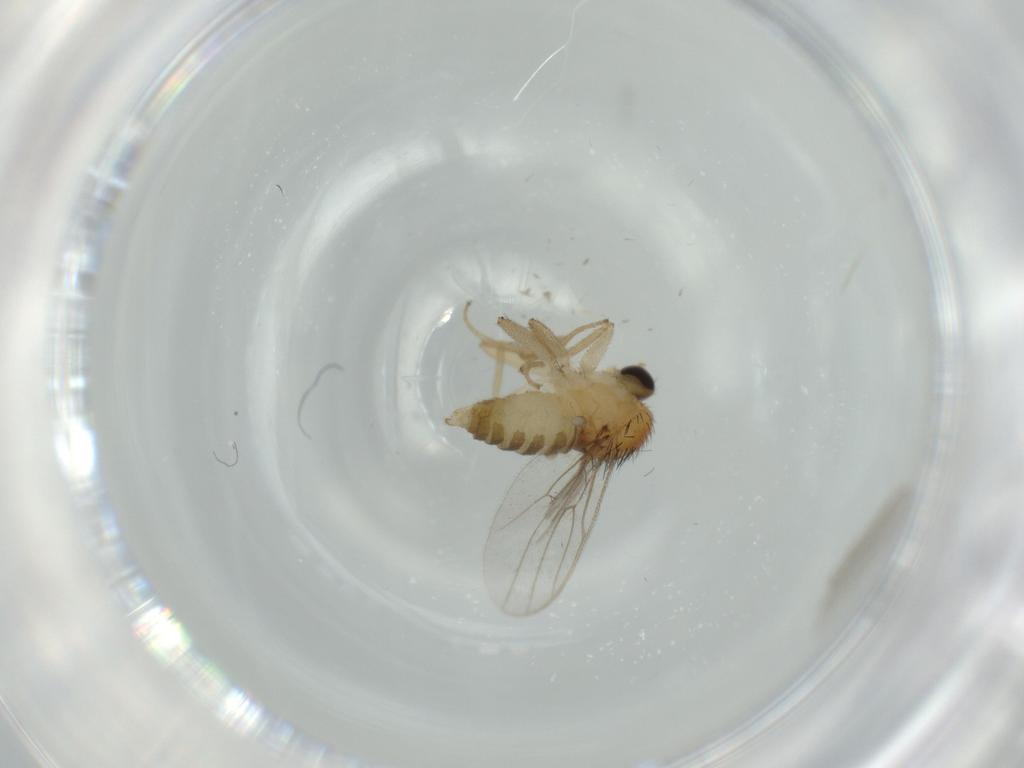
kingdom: Animalia
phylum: Arthropoda
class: Insecta
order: Diptera
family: Hybotidae
